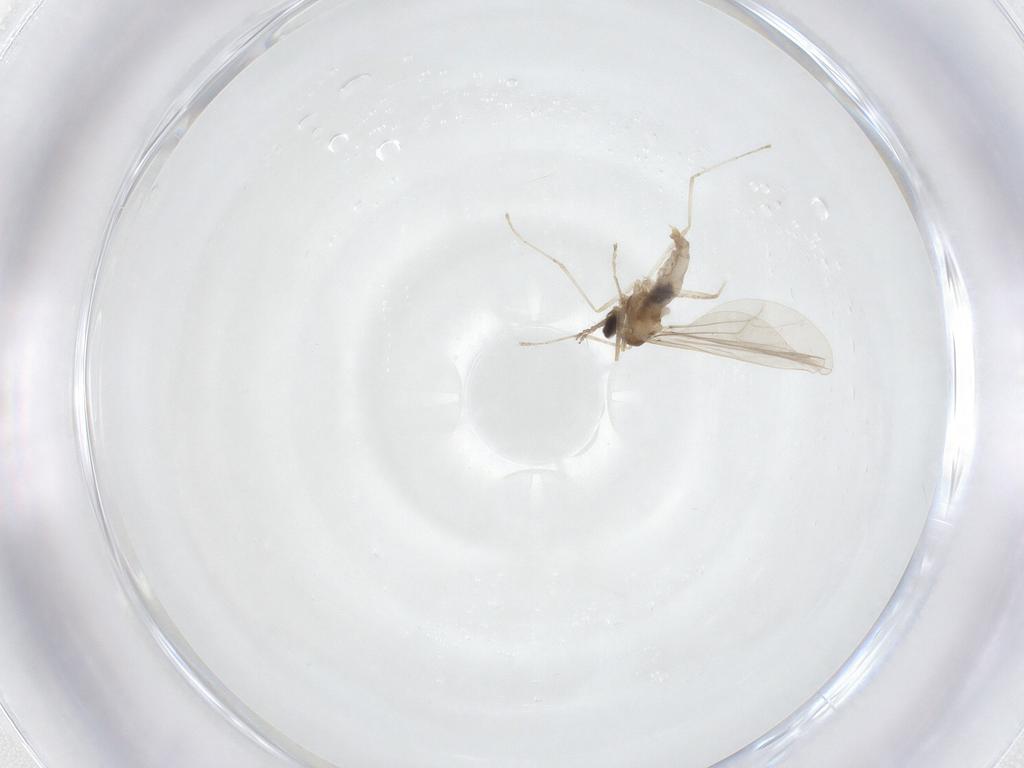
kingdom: Animalia
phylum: Arthropoda
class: Insecta
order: Diptera
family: Cecidomyiidae
